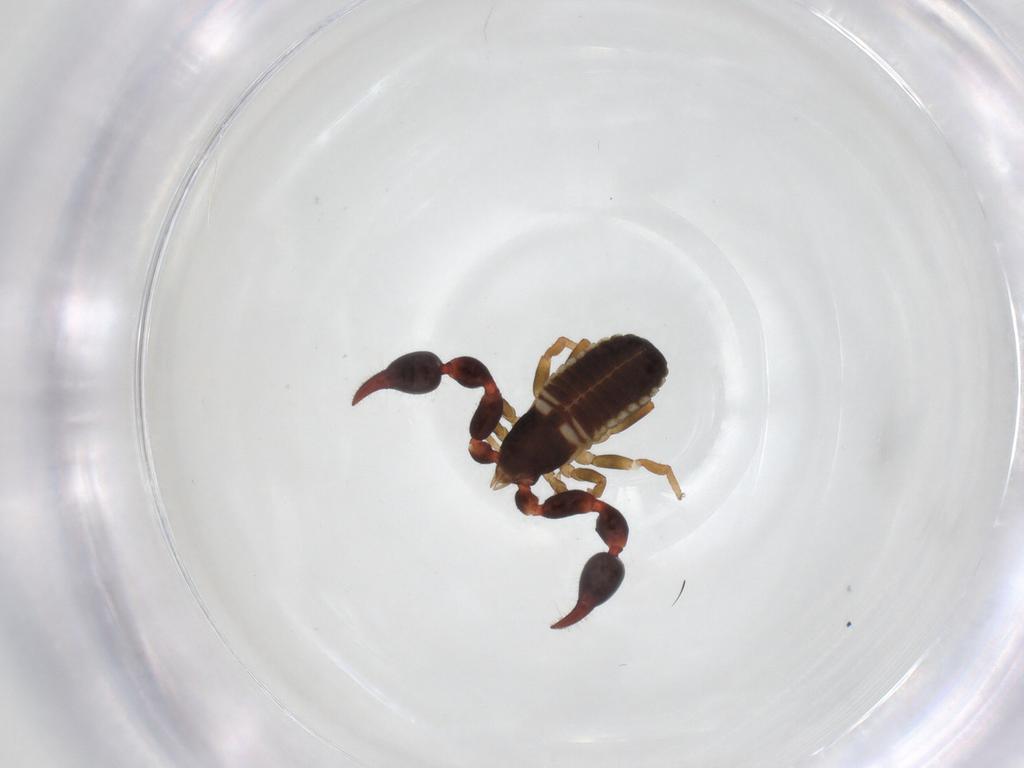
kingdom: Animalia
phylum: Arthropoda
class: Arachnida
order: Pseudoscorpiones
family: Chernetidae
